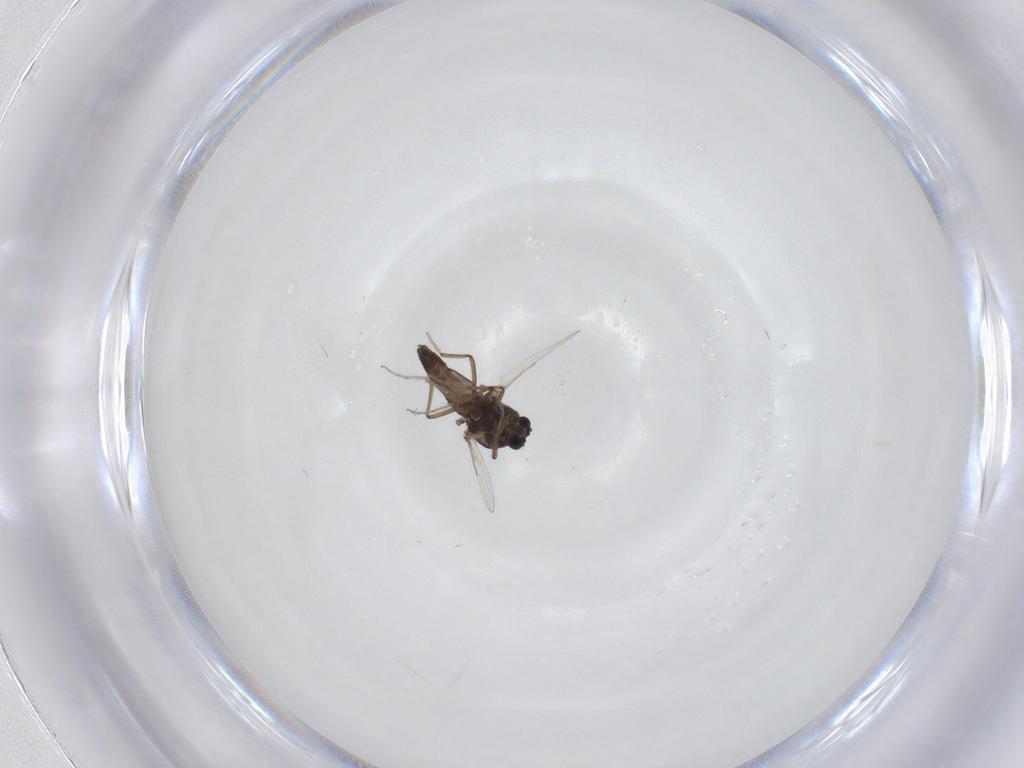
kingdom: Animalia
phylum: Arthropoda
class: Insecta
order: Diptera
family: Ceratopogonidae
